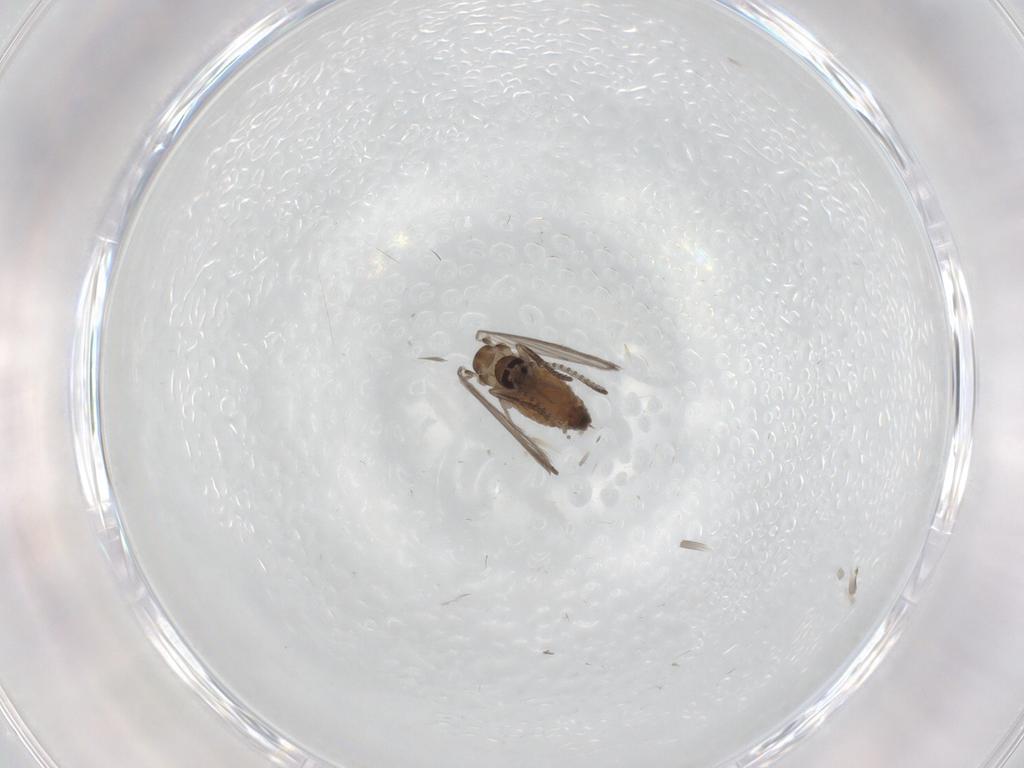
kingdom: Animalia
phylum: Arthropoda
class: Insecta
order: Diptera
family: Psychodidae
